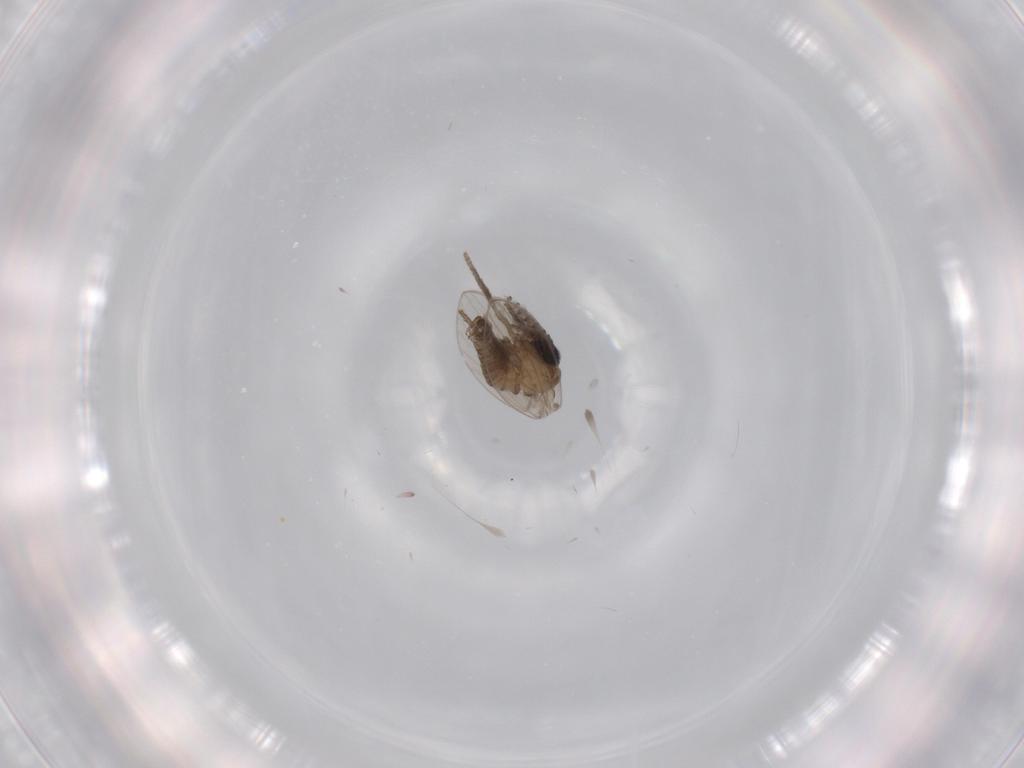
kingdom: Animalia
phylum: Arthropoda
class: Insecta
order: Diptera
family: Psychodidae
